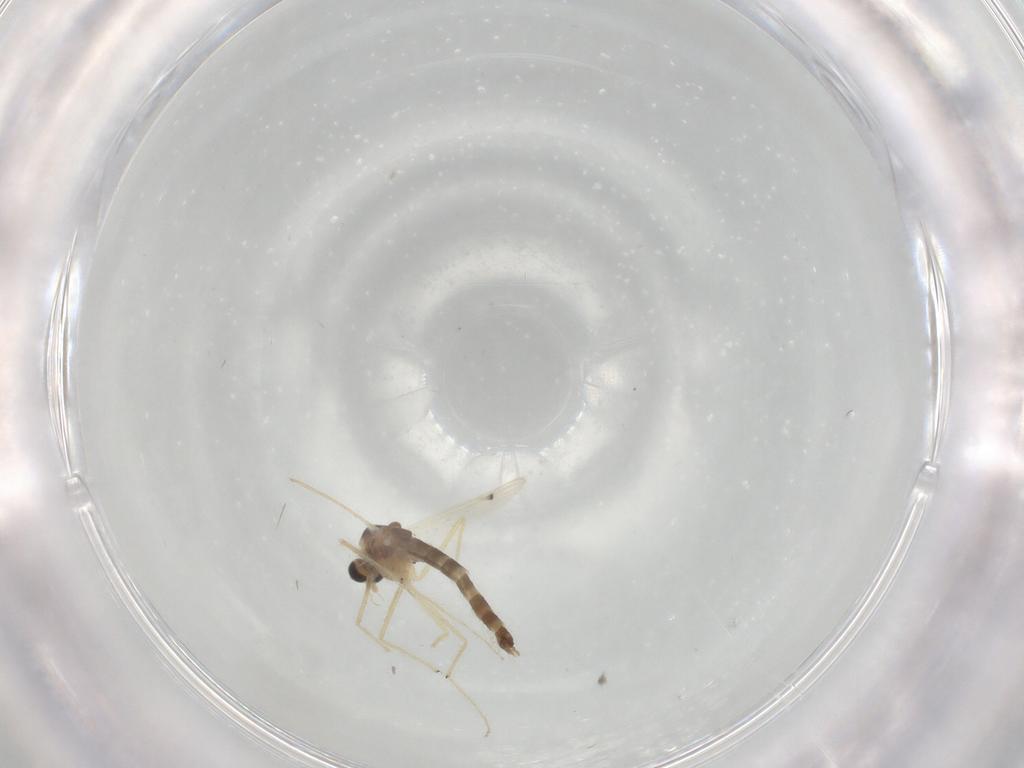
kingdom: Animalia
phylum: Arthropoda
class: Insecta
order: Diptera
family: Chironomidae
